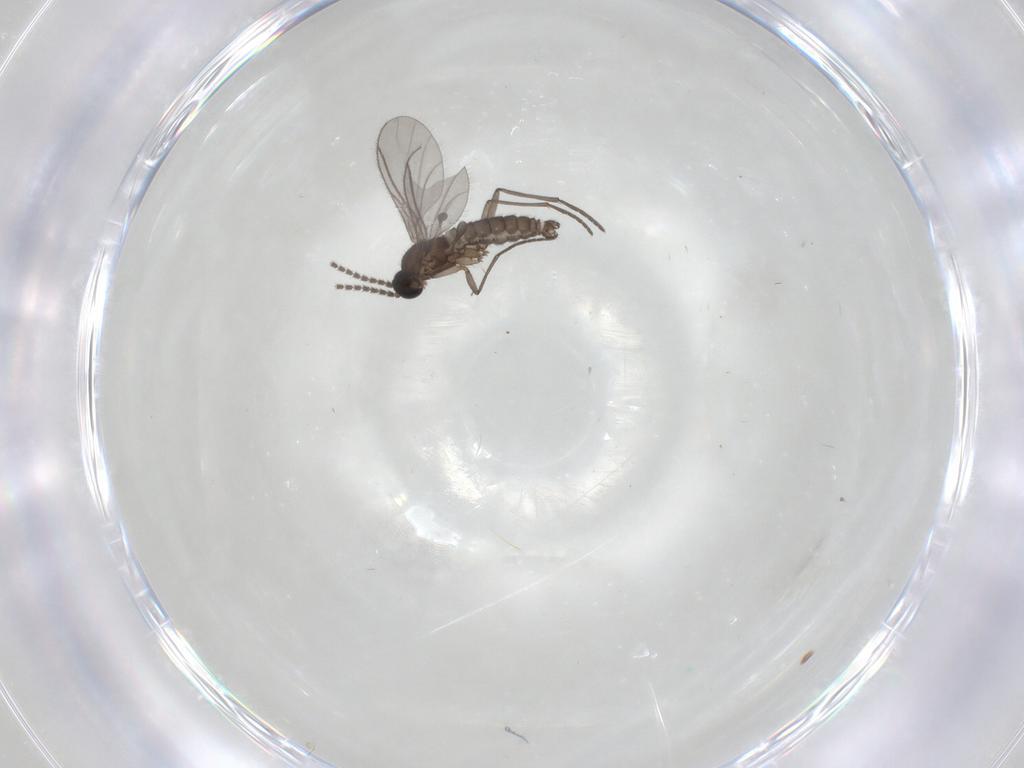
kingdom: Animalia
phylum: Arthropoda
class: Insecta
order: Diptera
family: Sciaridae
